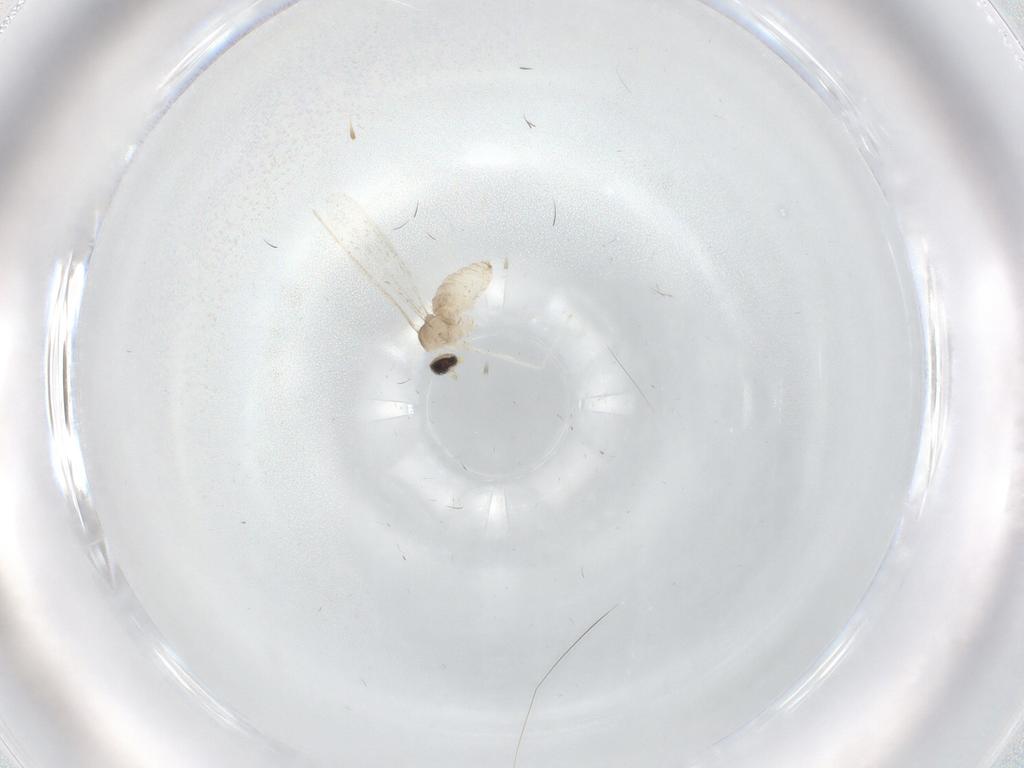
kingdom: Animalia
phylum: Arthropoda
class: Insecta
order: Diptera
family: Cecidomyiidae
